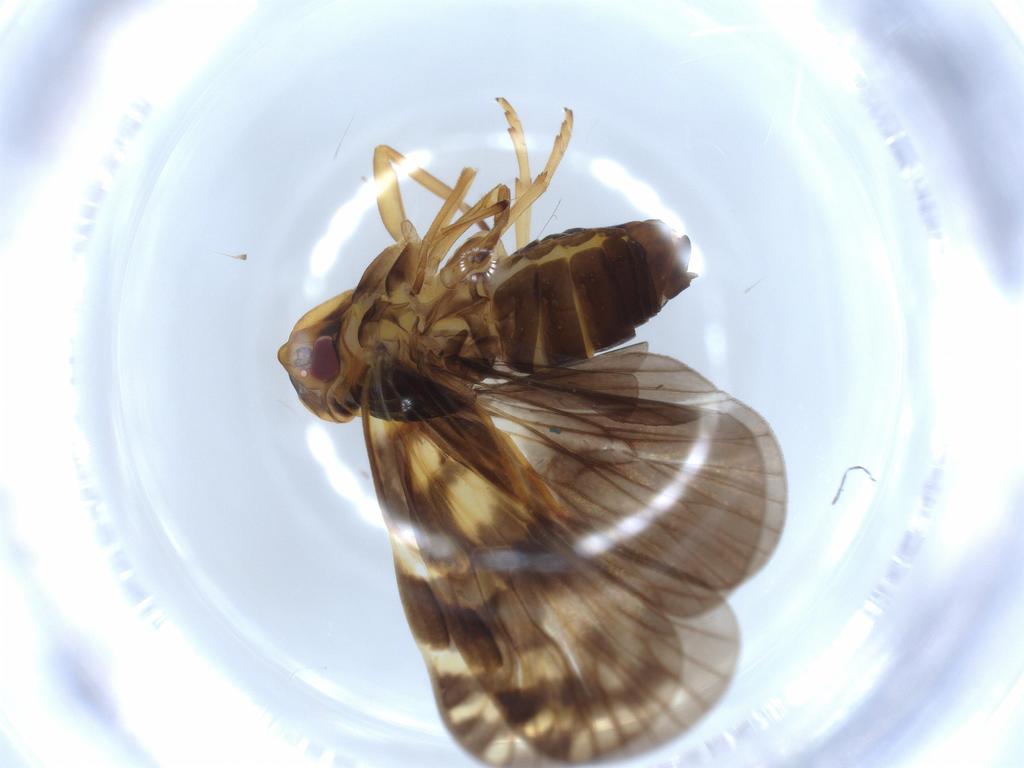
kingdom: Animalia
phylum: Arthropoda
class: Insecta
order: Hemiptera
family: Cixiidae
